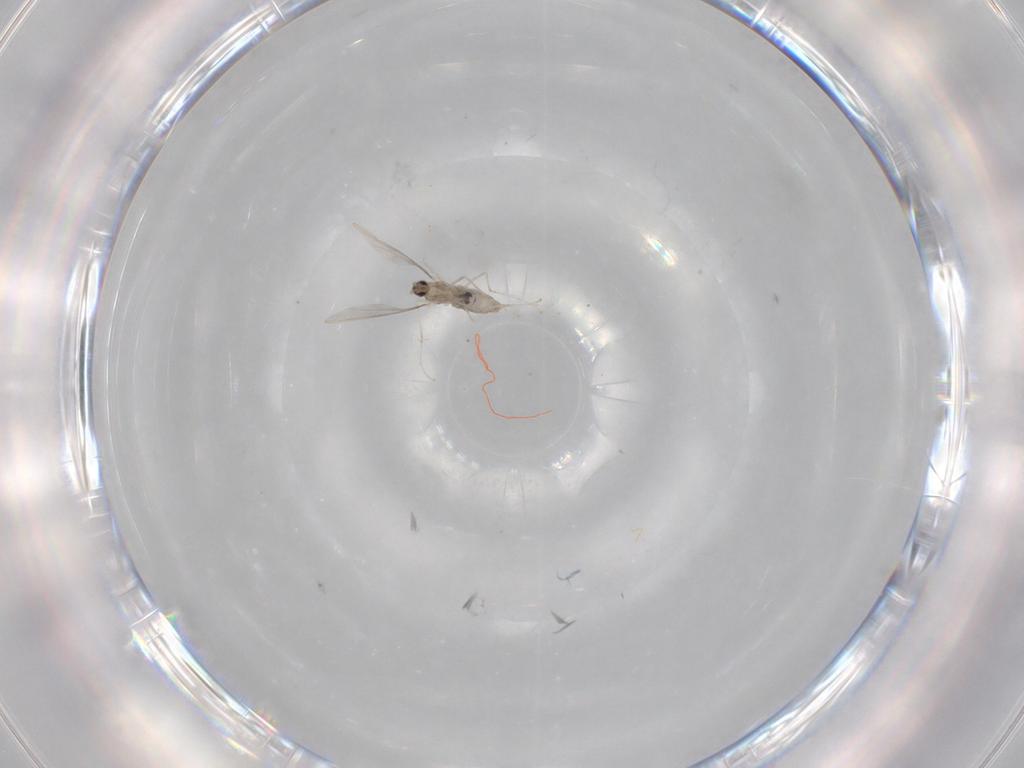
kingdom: Animalia
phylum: Arthropoda
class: Insecta
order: Diptera
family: Cecidomyiidae
